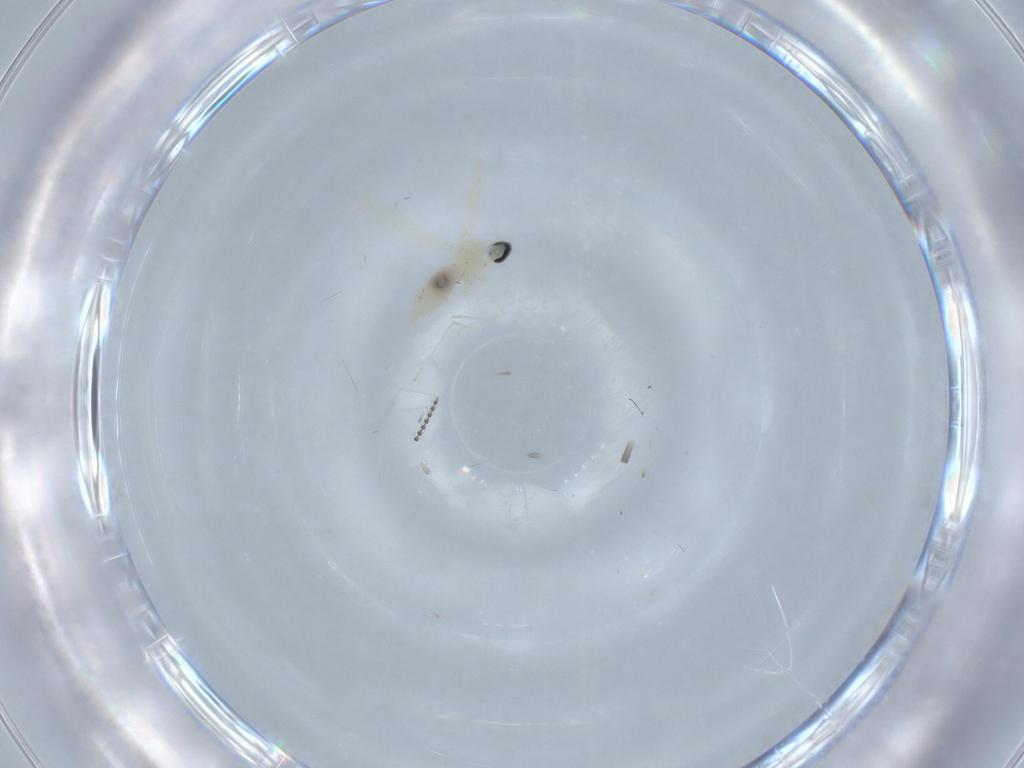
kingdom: Animalia
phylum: Arthropoda
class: Insecta
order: Diptera
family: Cecidomyiidae
